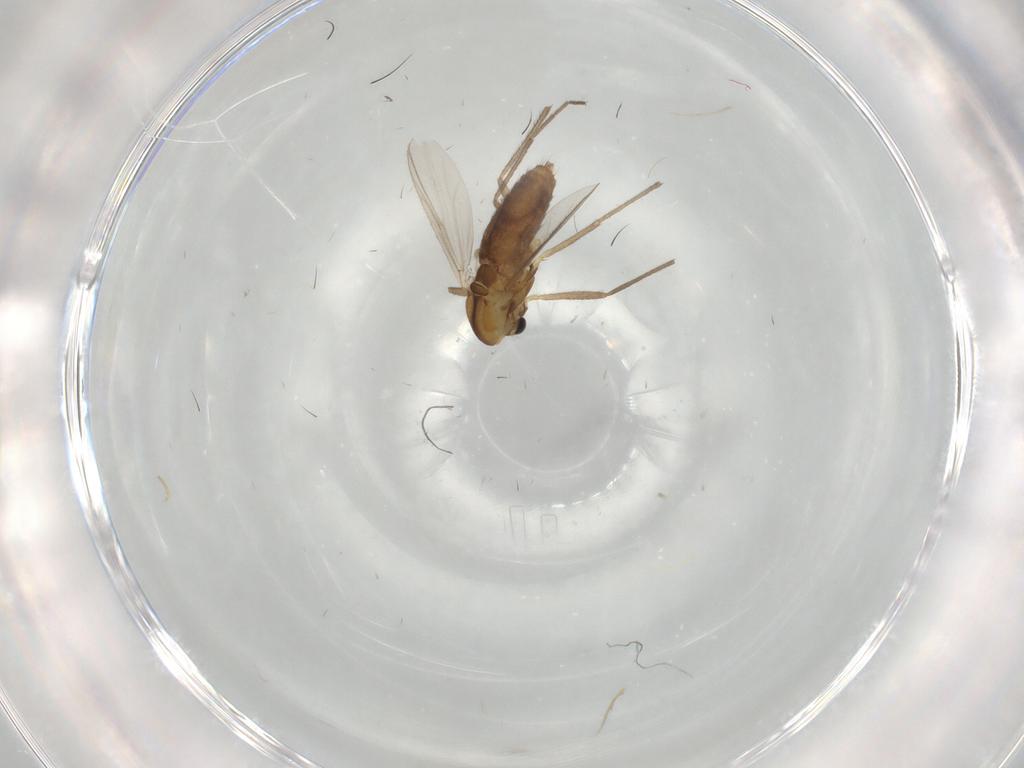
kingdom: Animalia
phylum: Arthropoda
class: Insecta
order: Diptera
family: Chironomidae
